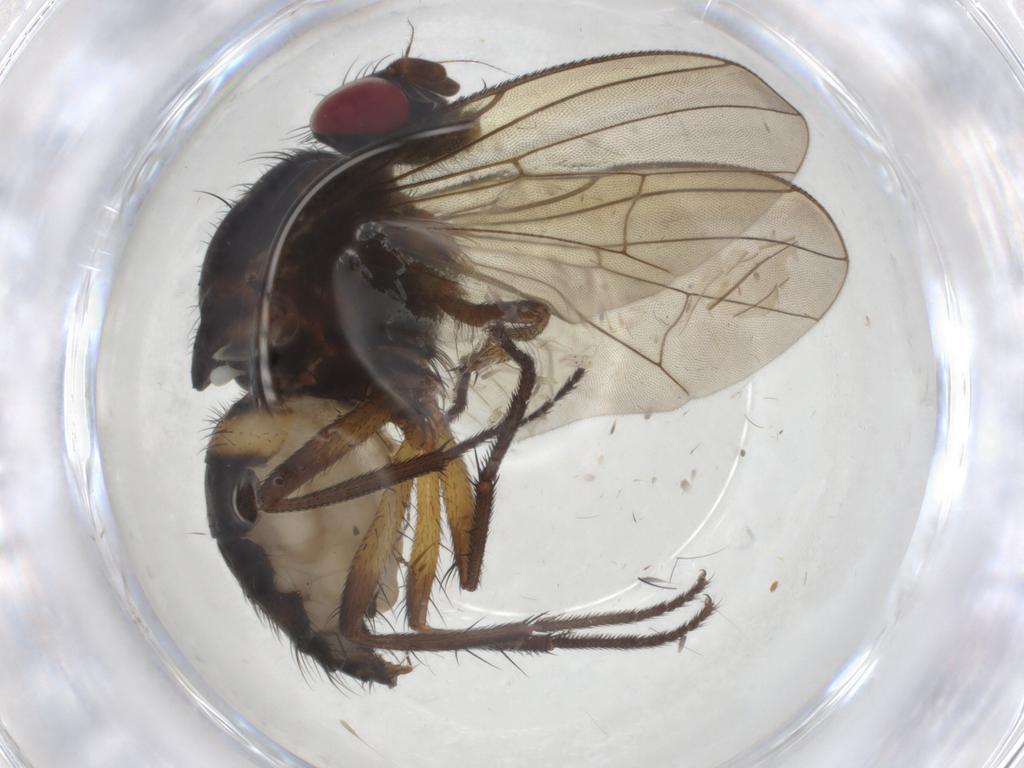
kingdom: Animalia
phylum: Arthropoda
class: Insecta
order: Diptera
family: Anthomyiidae
